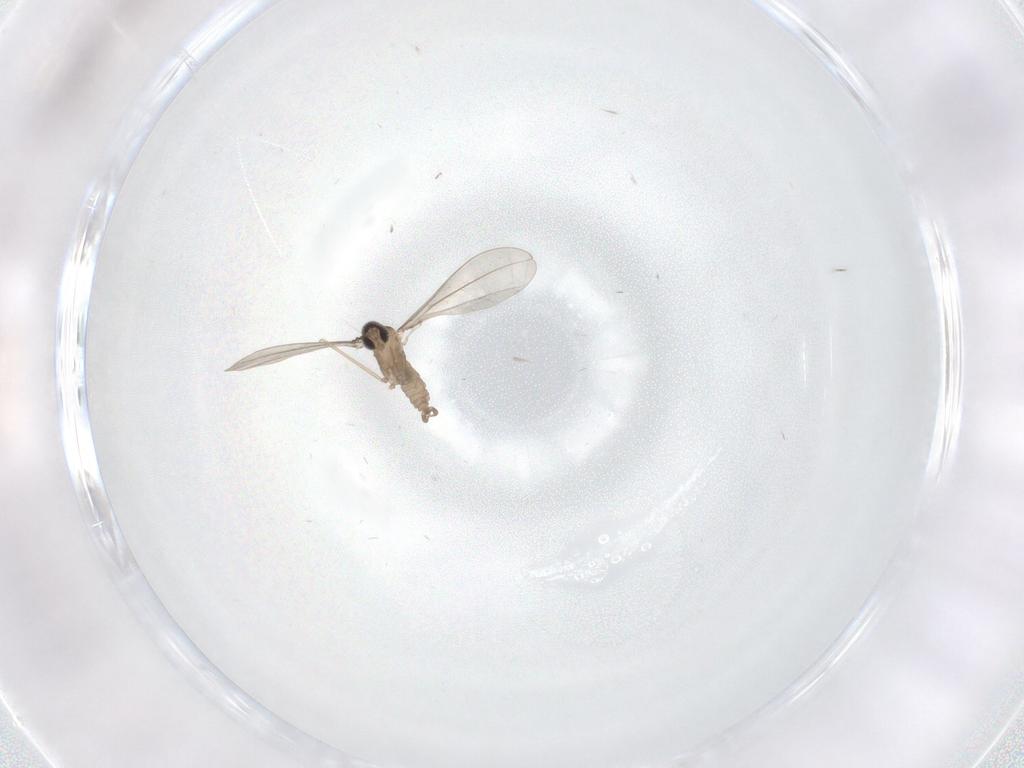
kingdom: Animalia
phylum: Arthropoda
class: Insecta
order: Diptera
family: Cecidomyiidae
